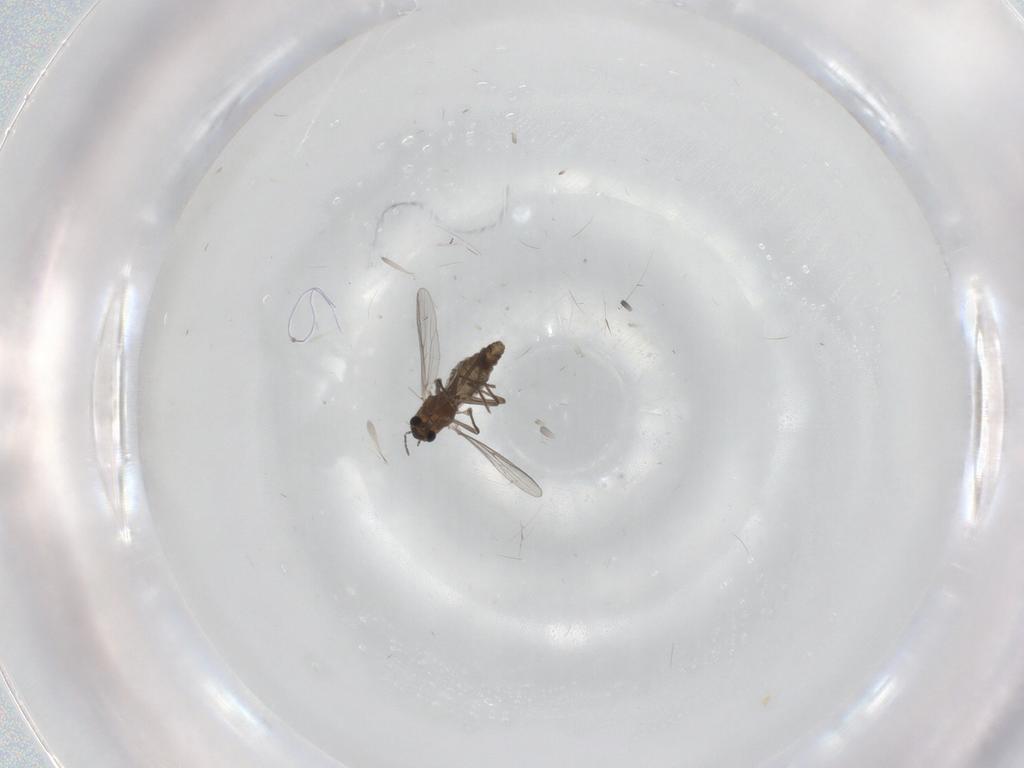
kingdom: Animalia
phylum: Arthropoda
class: Insecta
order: Diptera
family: Chironomidae
